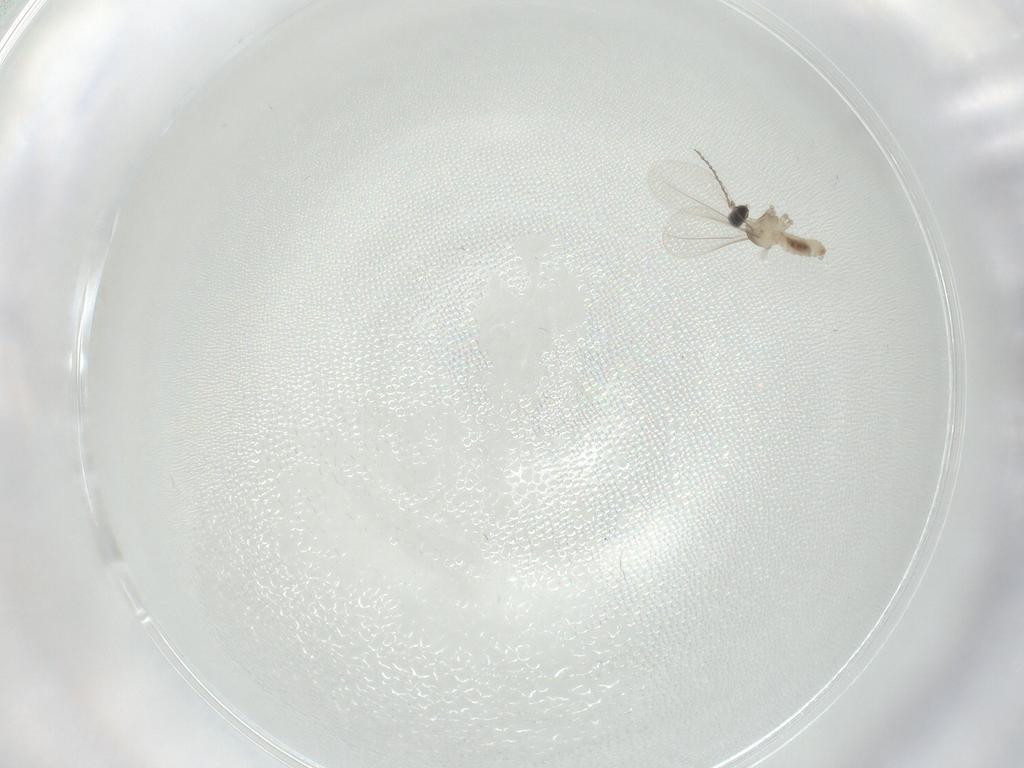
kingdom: Animalia
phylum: Arthropoda
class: Insecta
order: Diptera
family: Cecidomyiidae
